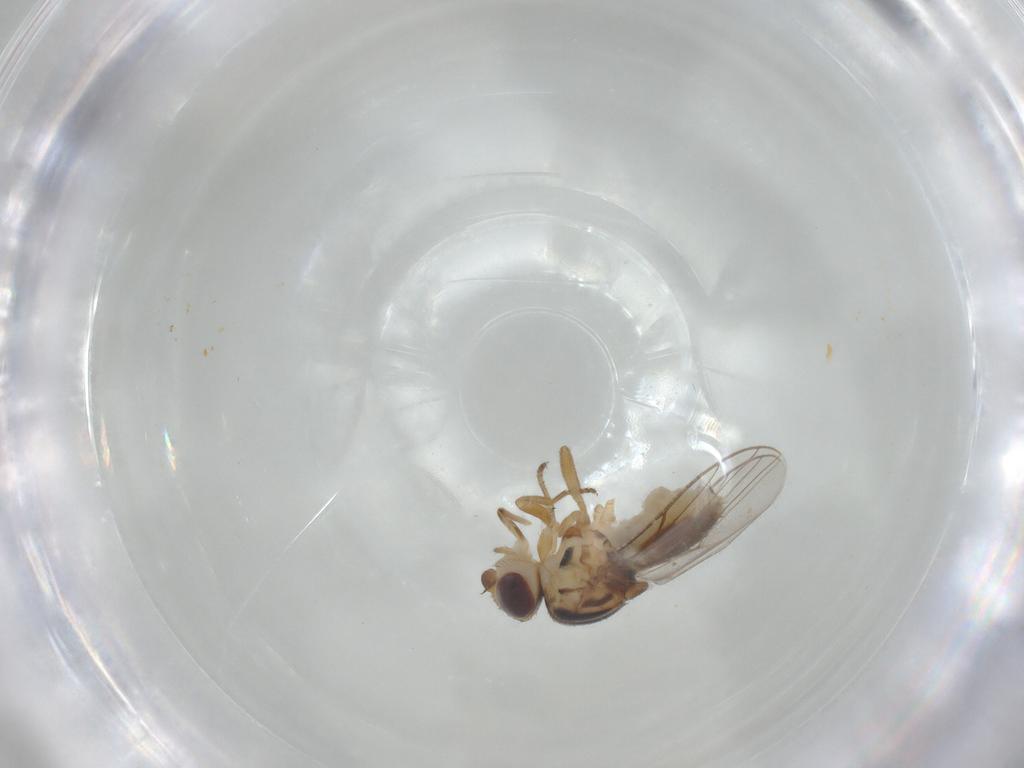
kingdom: Animalia
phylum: Arthropoda
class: Insecta
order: Diptera
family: Chloropidae
